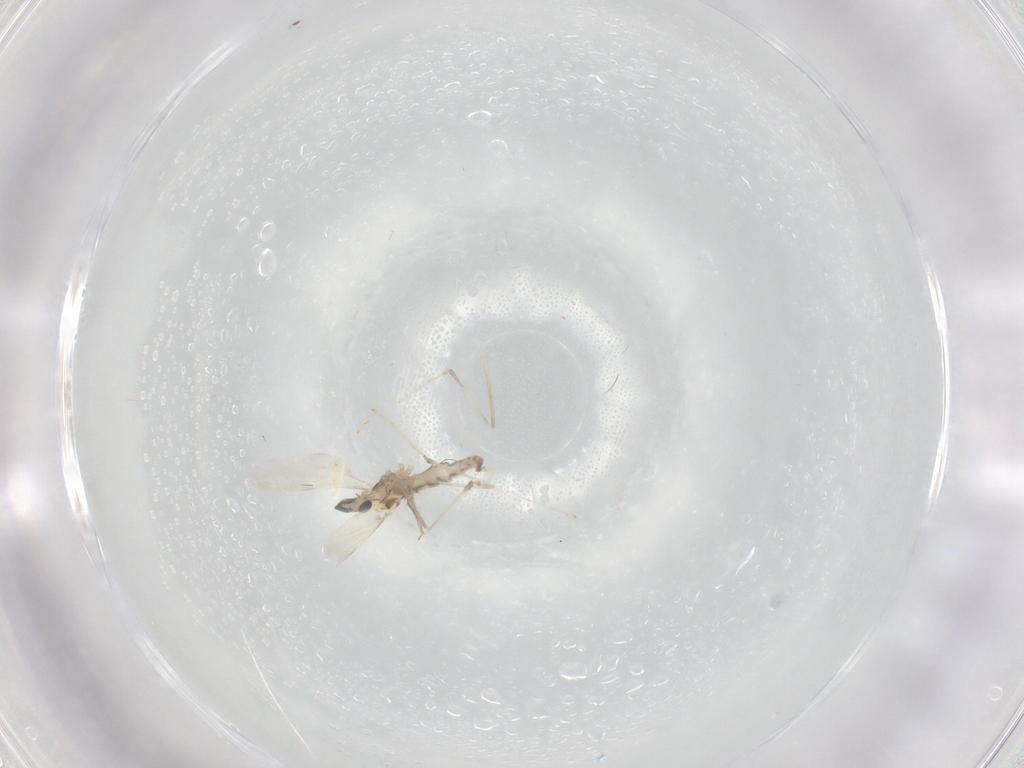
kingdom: Animalia
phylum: Arthropoda
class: Insecta
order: Diptera
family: Cecidomyiidae
